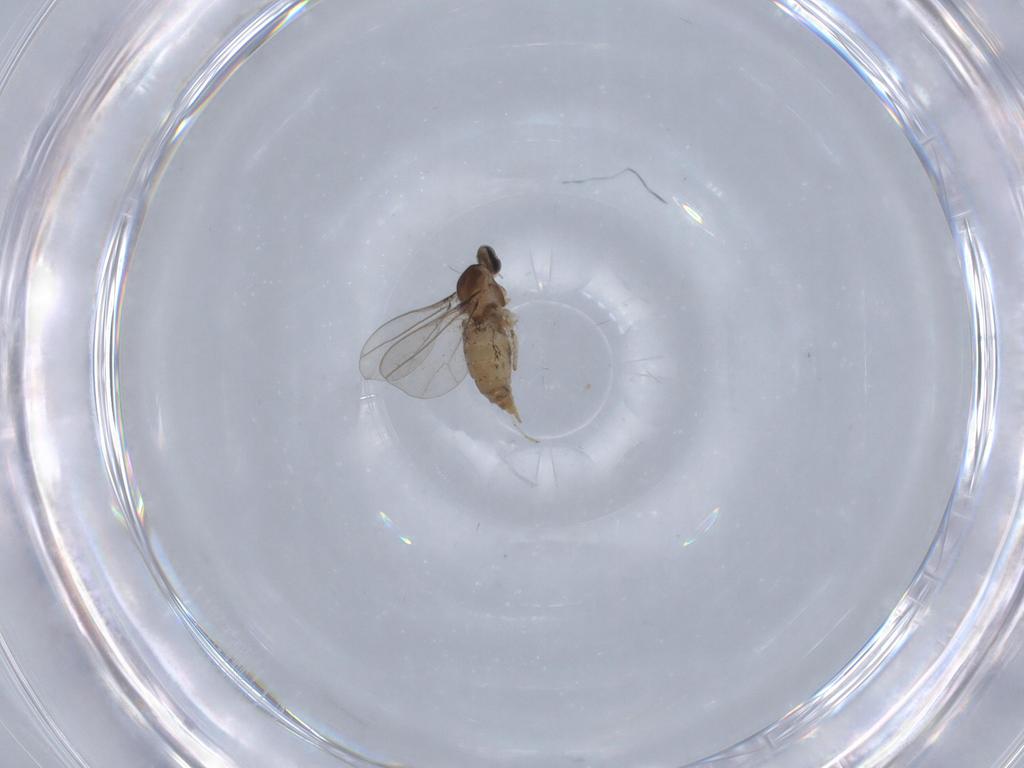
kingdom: Animalia
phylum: Arthropoda
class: Insecta
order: Diptera
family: Cecidomyiidae
